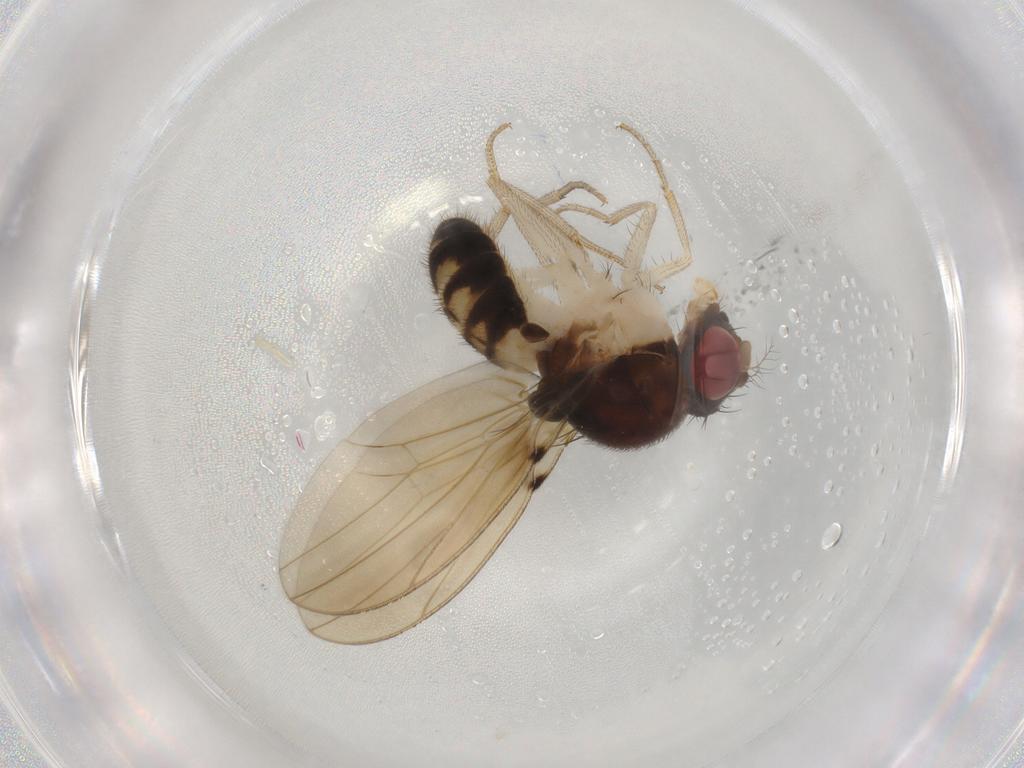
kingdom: Animalia
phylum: Arthropoda
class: Insecta
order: Diptera
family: Drosophilidae
